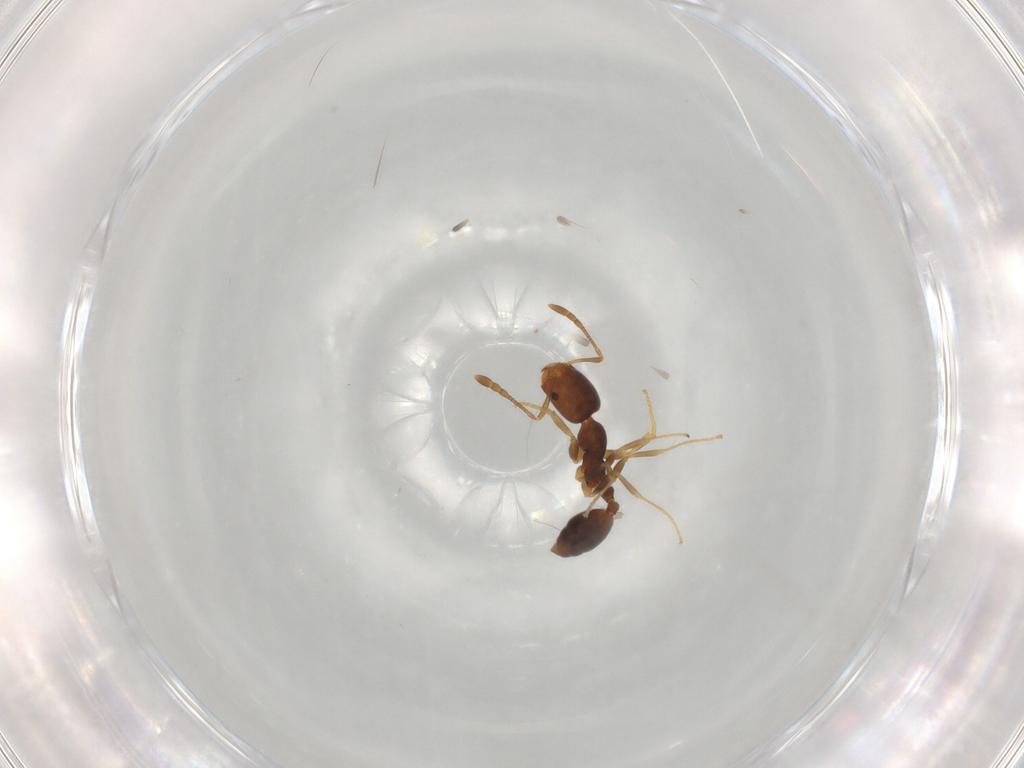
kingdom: Animalia
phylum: Arthropoda
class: Insecta
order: Hymenoptera
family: Formicidae
